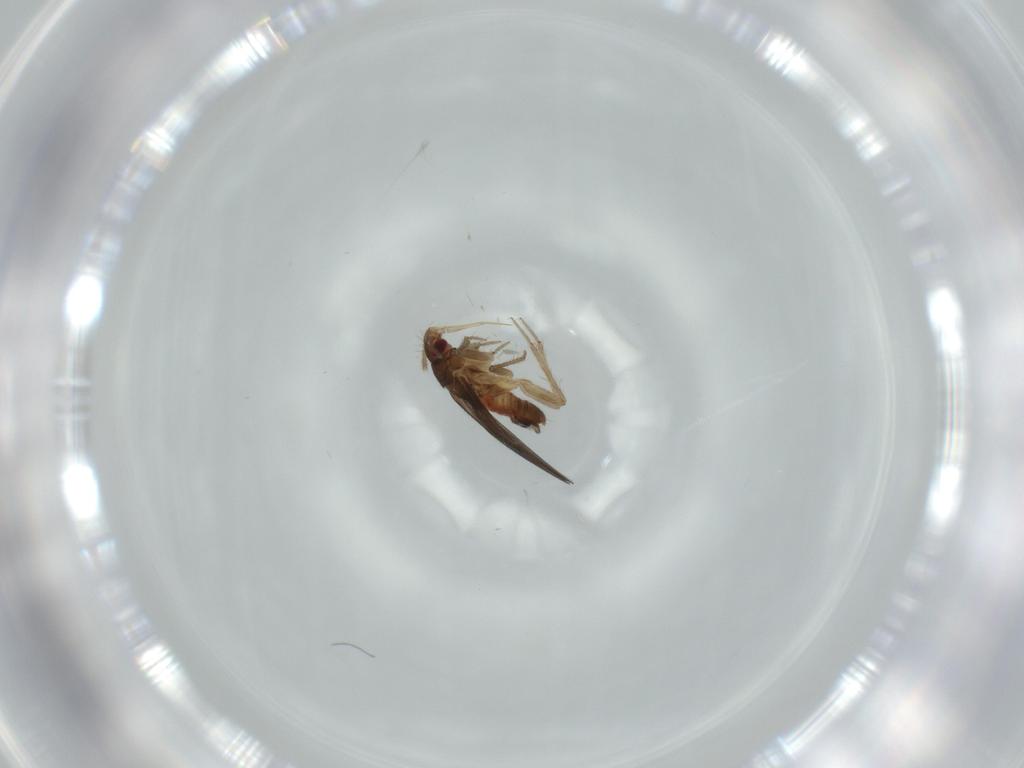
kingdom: Animalia
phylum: Arthropoda
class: Insecta
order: Hemiptera
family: Ceratocombidae
